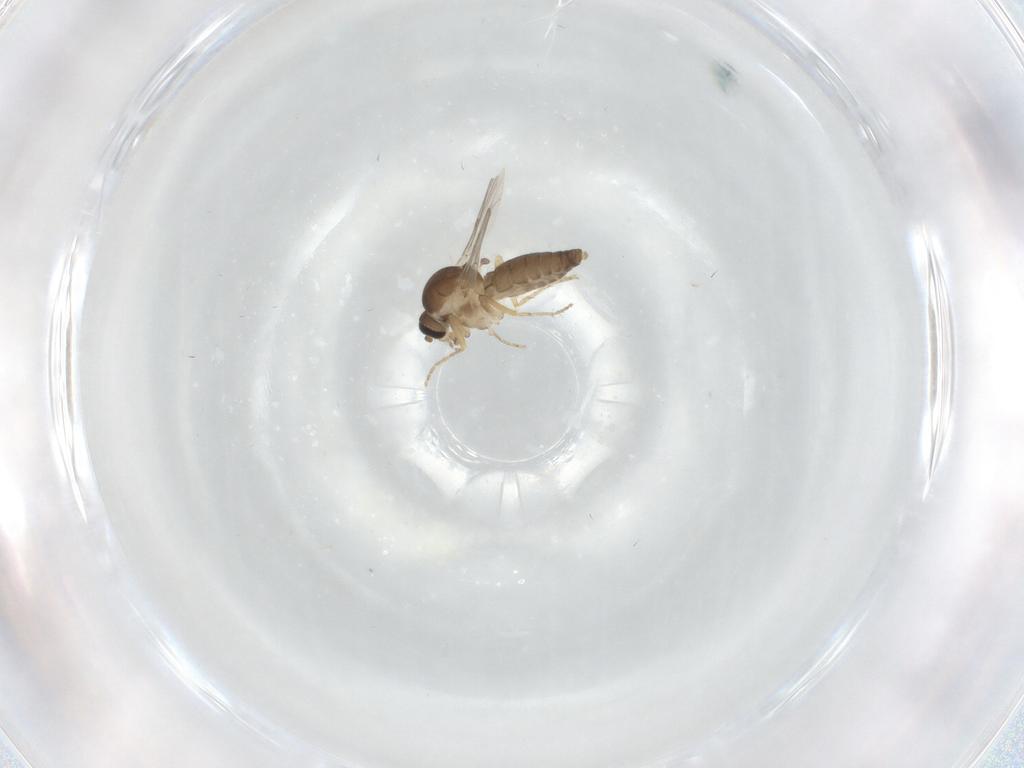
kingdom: Animalia
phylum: Arthropoda
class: Insecta
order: Diptera
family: Ceratopogonidae
